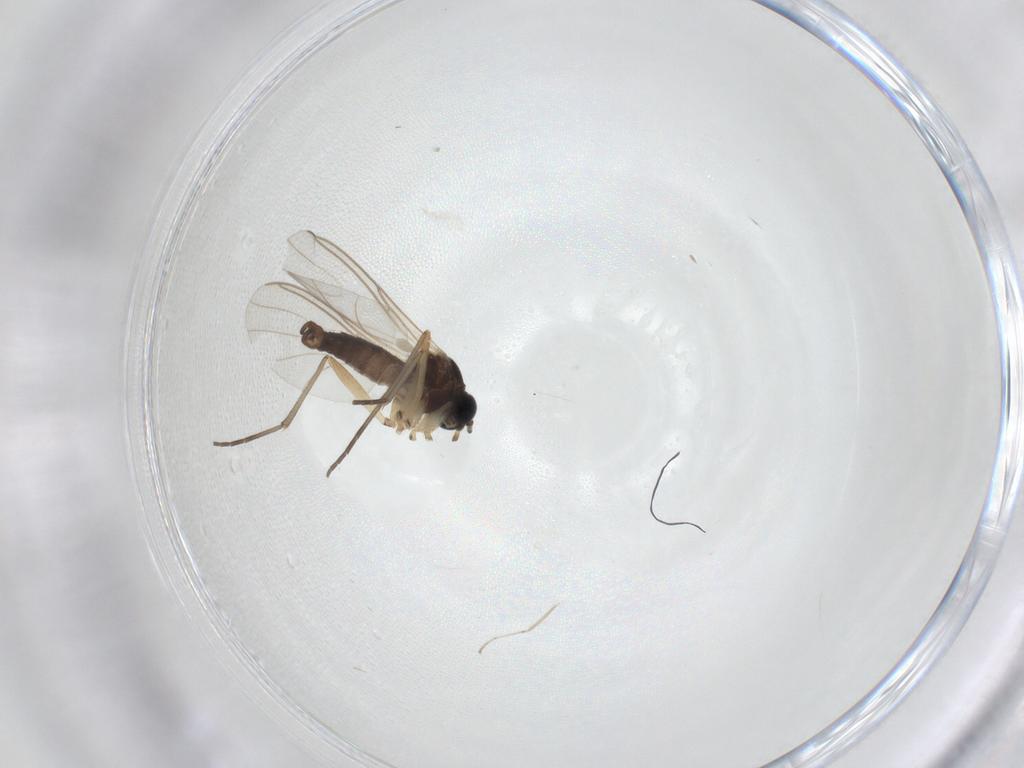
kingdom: Animalia
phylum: Arthropoda
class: Insecta
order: Diptera
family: Sciaridae
